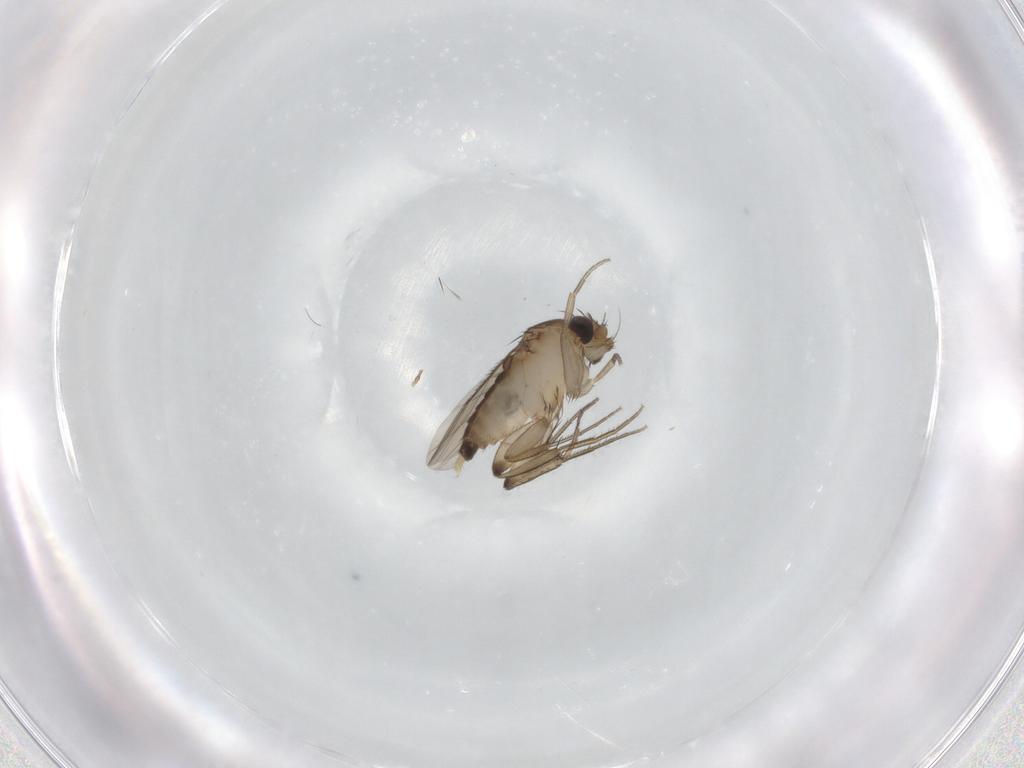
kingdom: Animalia
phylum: Arthropoda
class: Insecta
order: Diptera
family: Phoridae
